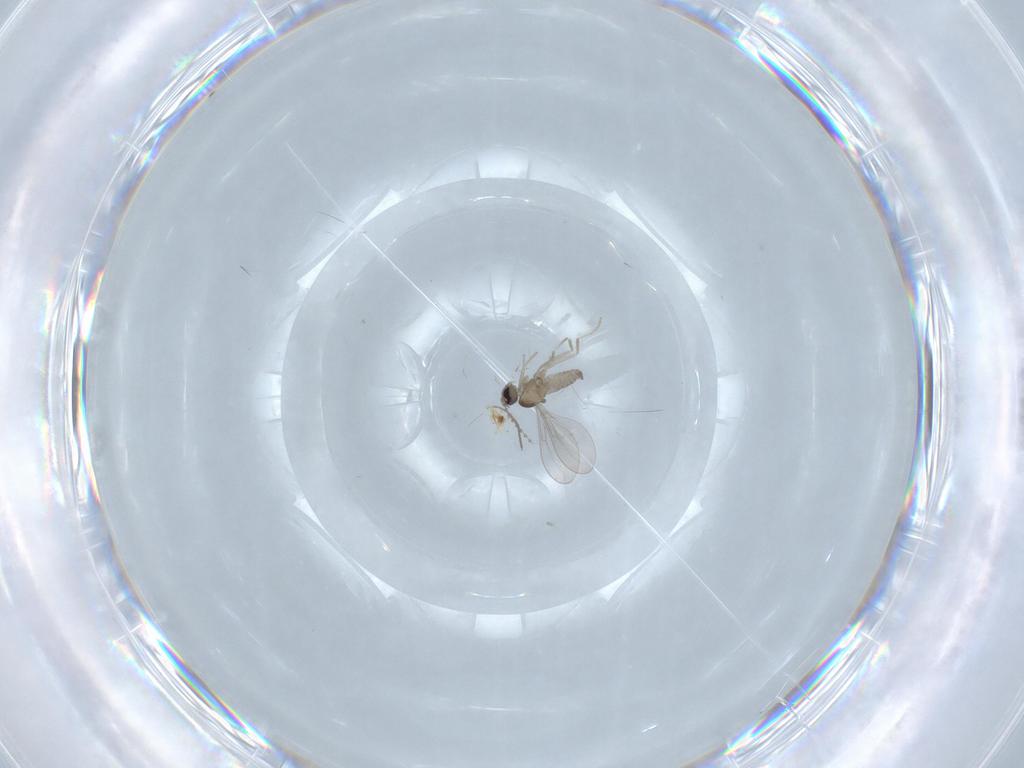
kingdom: Animalia
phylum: Arthropoda
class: Insecta
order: Diptera
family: Cecidomyiidae
